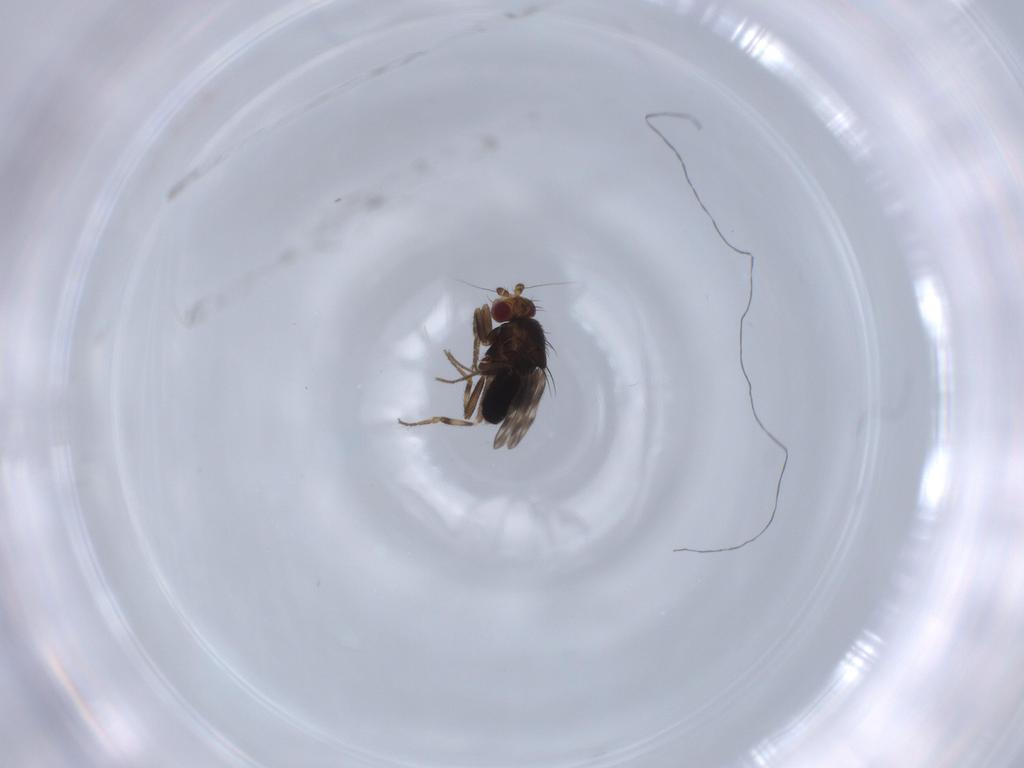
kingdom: Animalia
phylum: Arthropoda
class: Insecta
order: Diptera
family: Sphaeroceridae
